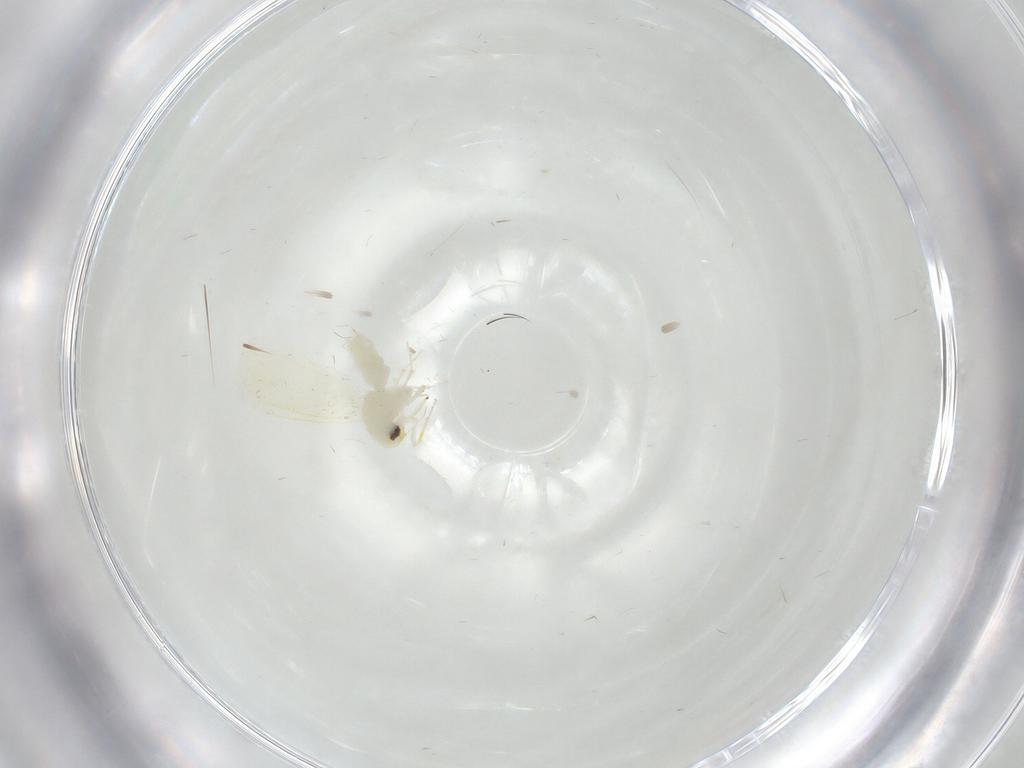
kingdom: Animalia
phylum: Arthropoda
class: Insecta
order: Hemiptera
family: Aleyrodidae
